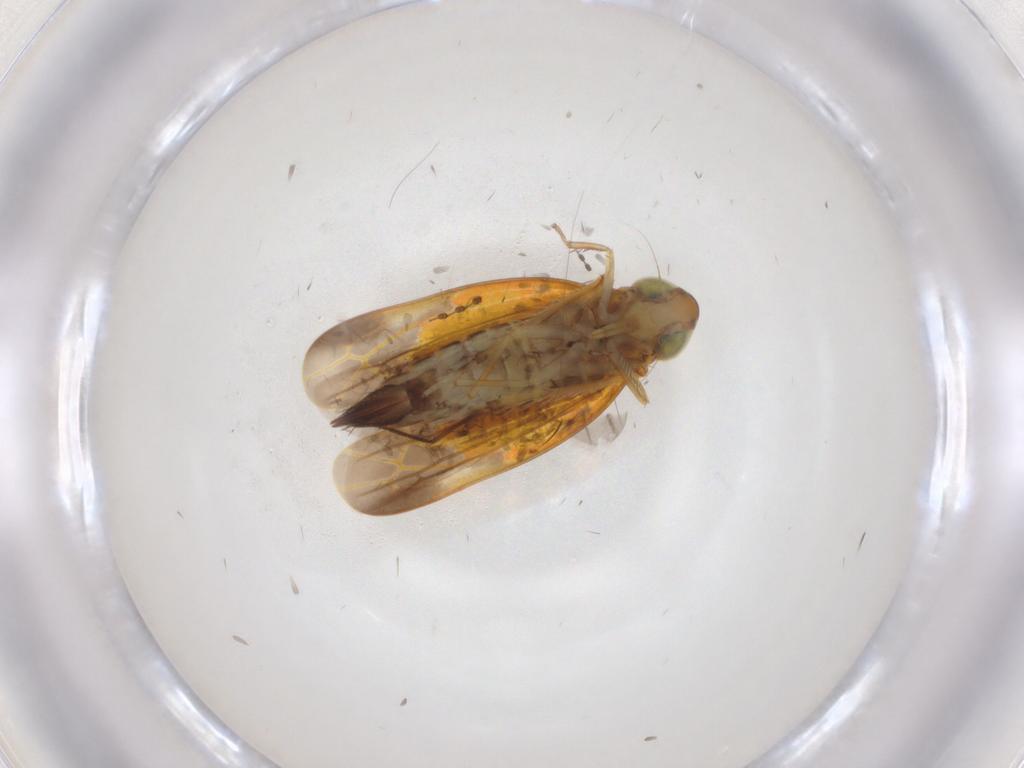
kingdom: Animalia
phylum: Arthropoda
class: Insecta
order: Hemiptera
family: Cicadellidae
